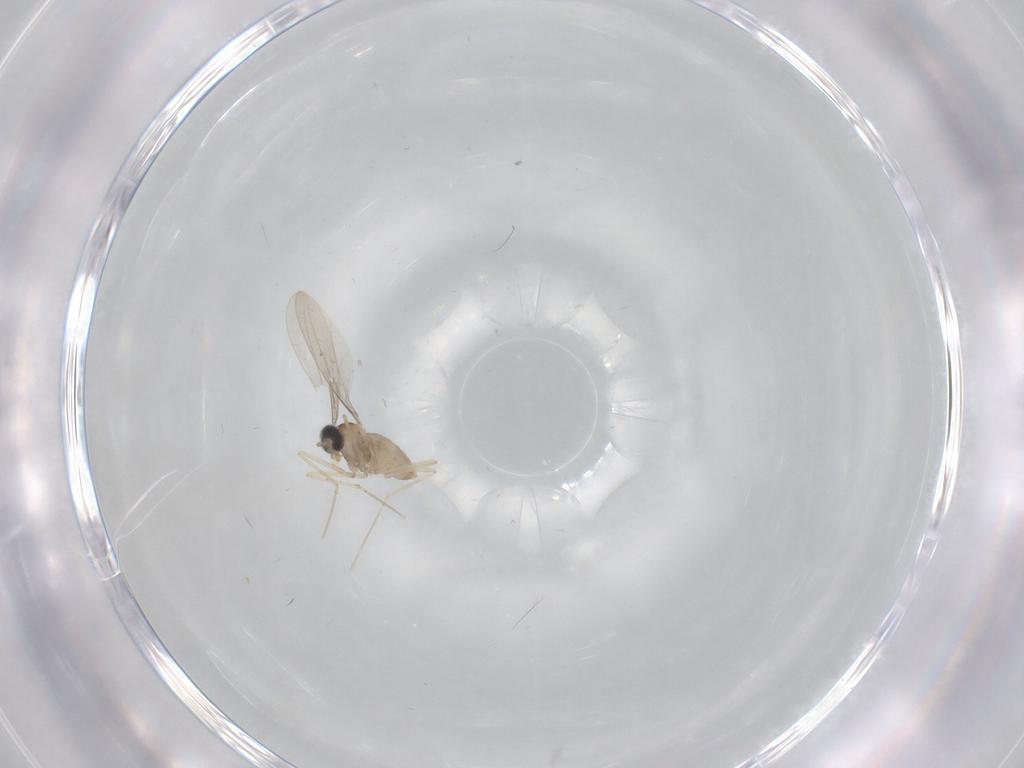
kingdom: Animalia
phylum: Arthropoda
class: Insecta
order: Diptera
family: Cecidomyiidae
